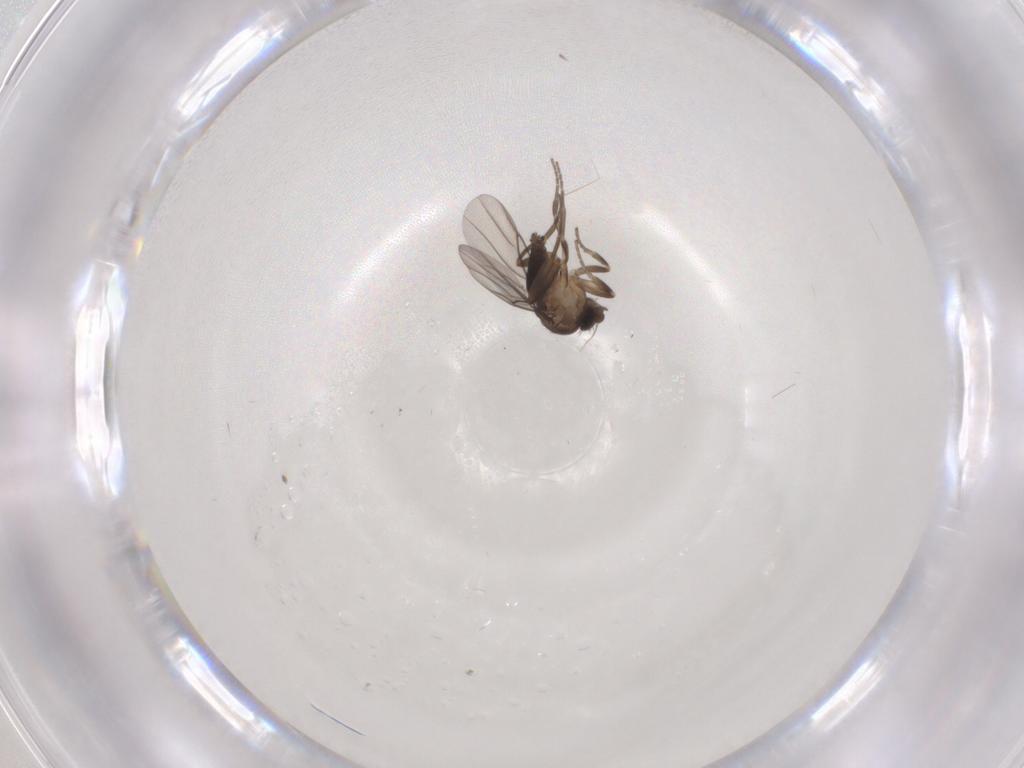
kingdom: Animalia
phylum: Arthropoda
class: Insecta
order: Diptera
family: Phoridae
